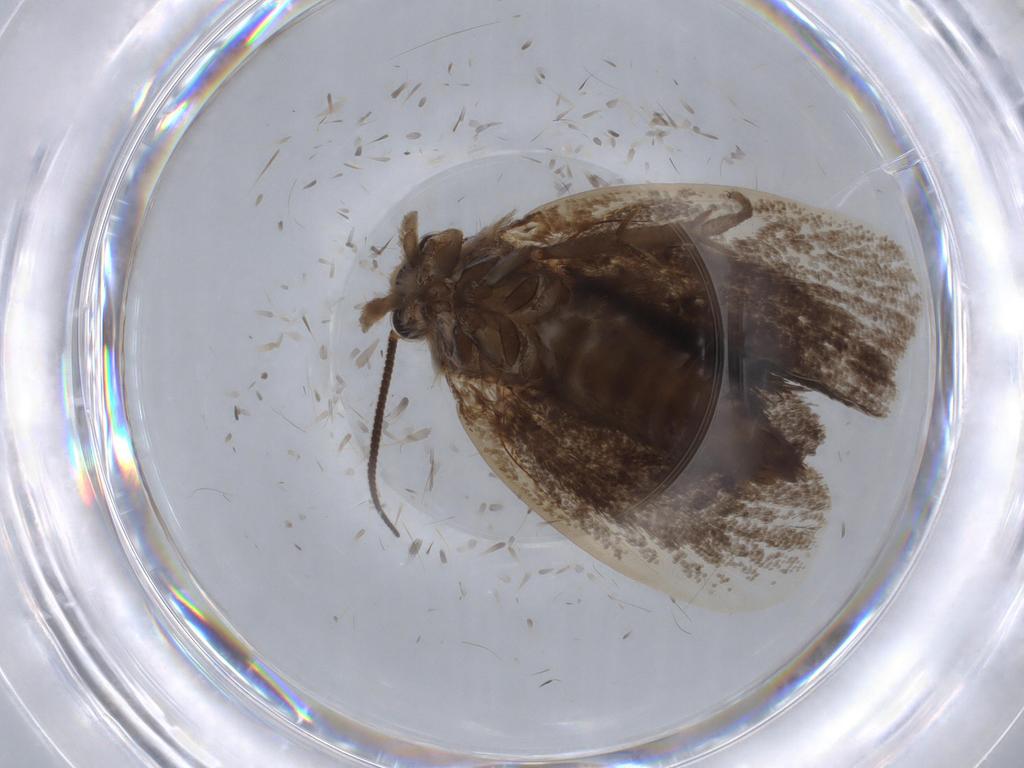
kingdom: Animalia
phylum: Arthropoda
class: Insecta
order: Lepidoptera
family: Tineidae
